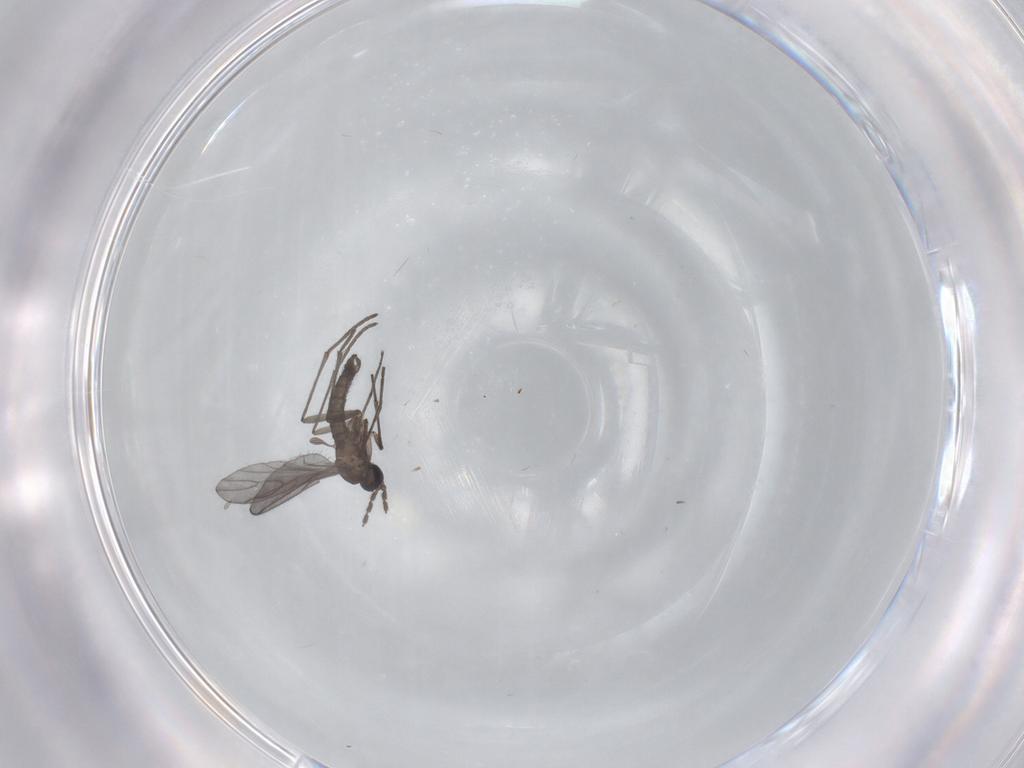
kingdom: Animalia
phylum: Arthropoda
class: Insecta
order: Diptera
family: Sciaridae
